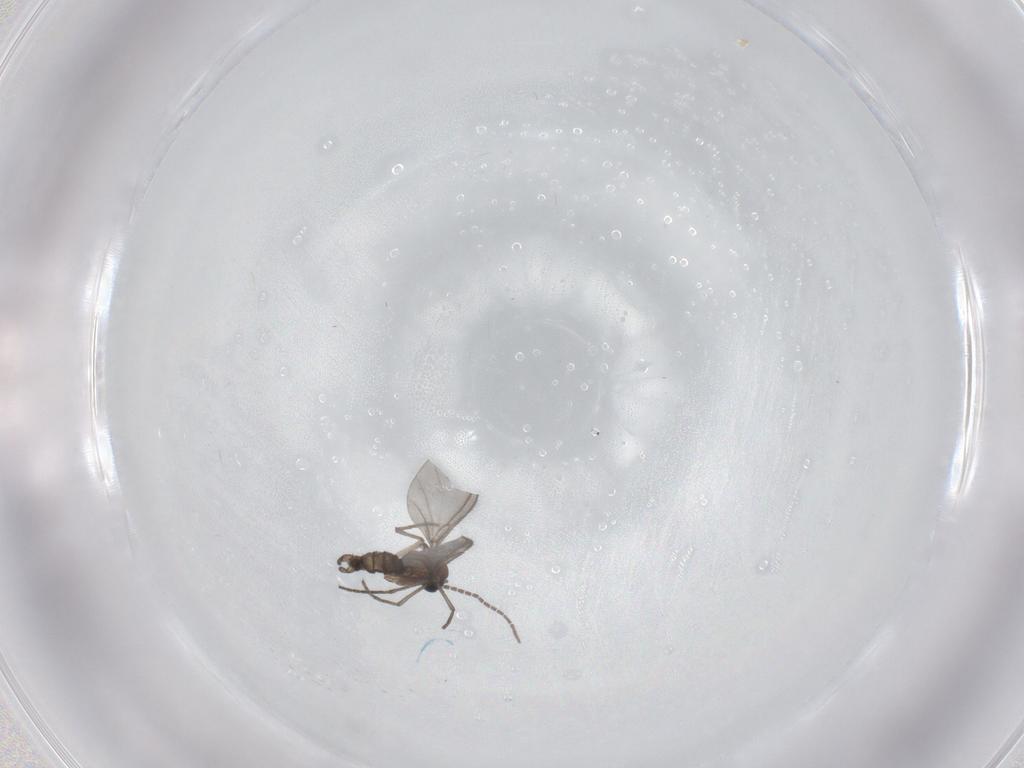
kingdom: Animalia
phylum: Arthropoda
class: Insecta
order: Diptera
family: Sciaridae
